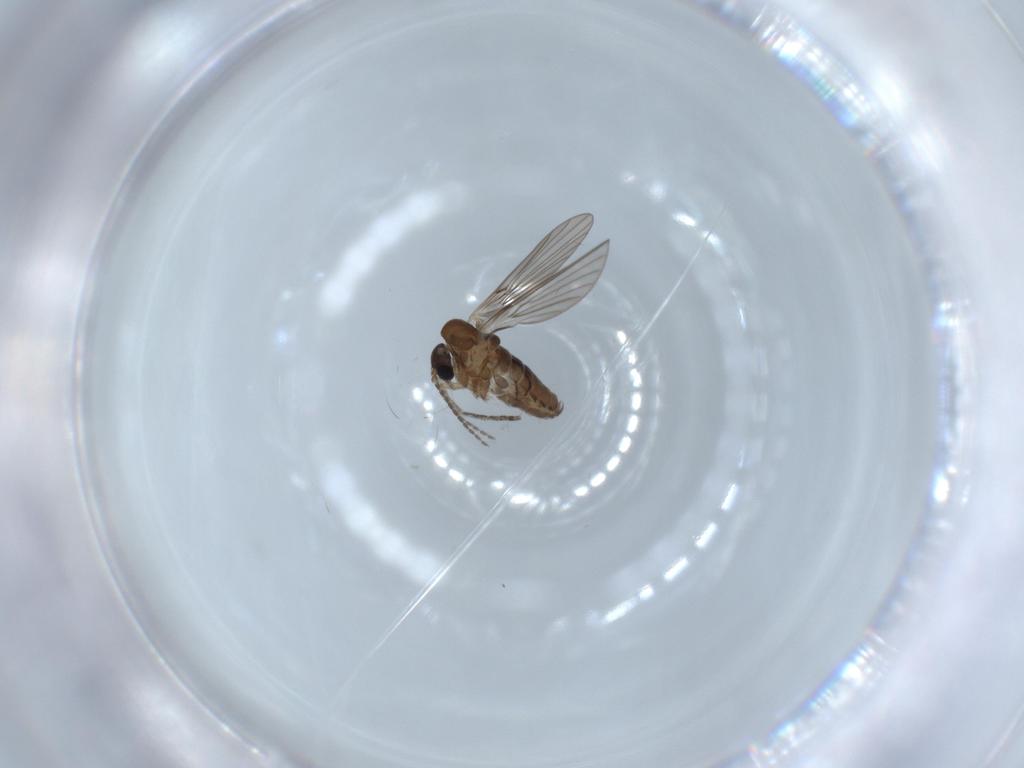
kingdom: Animalia
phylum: Arthropoda
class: Insecta
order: Diptera
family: Psychodidae
